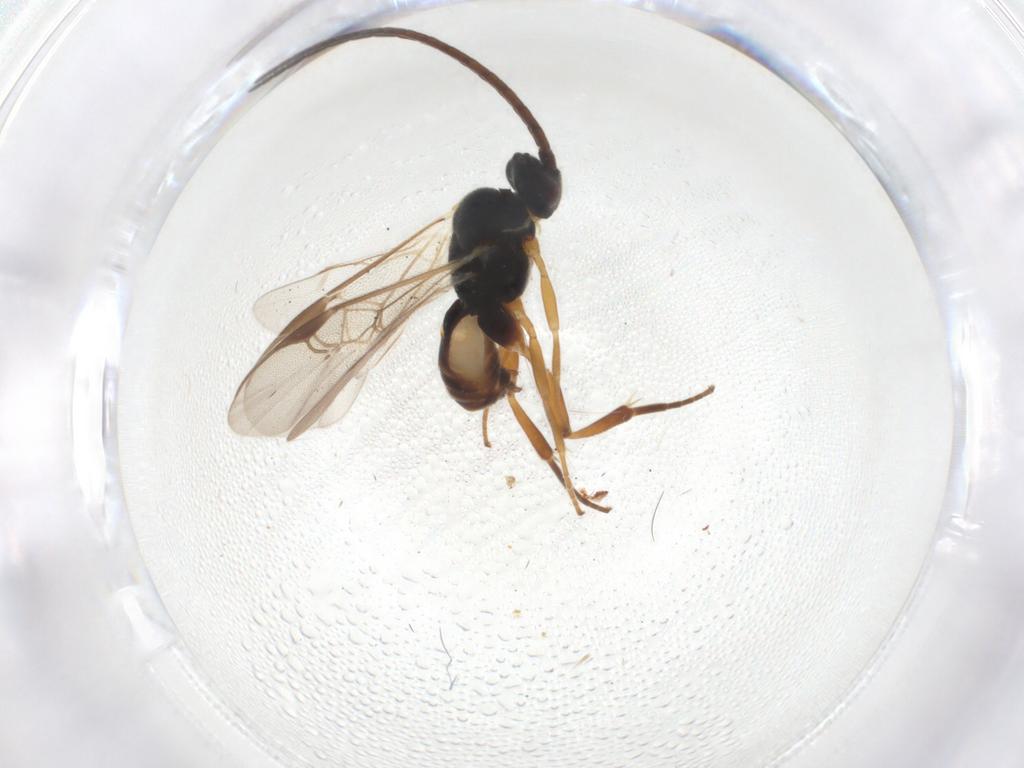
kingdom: Animalia
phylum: Arthropoda
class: Insecta
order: Hymenoptera
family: Braconidae
